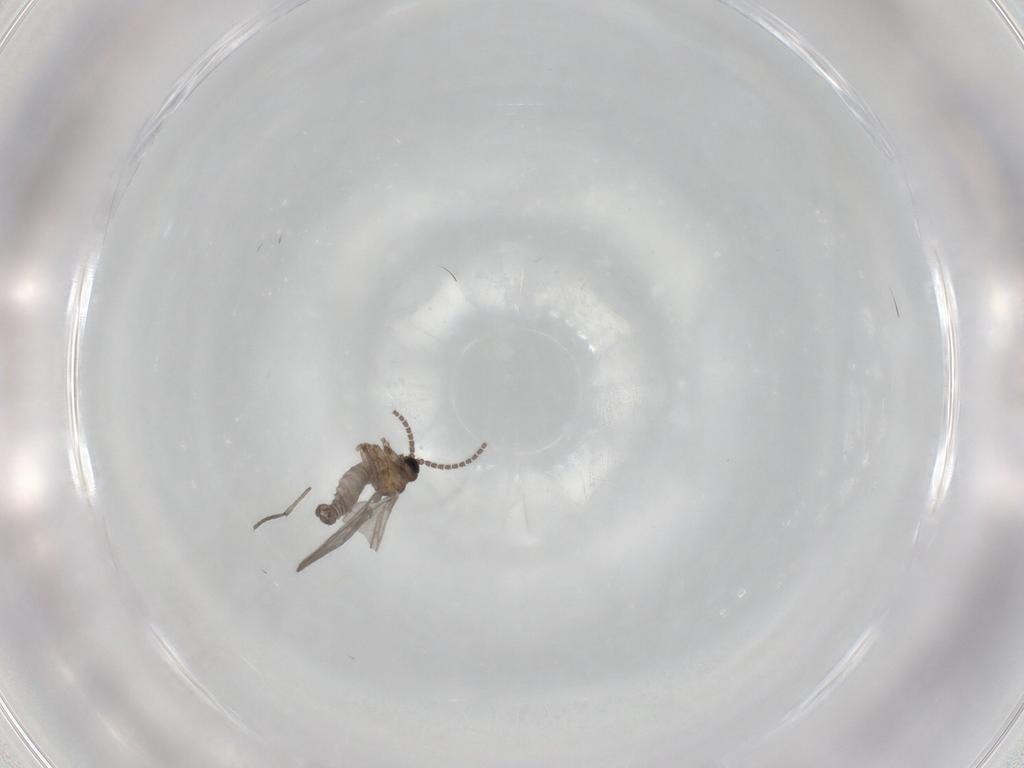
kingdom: Animalia
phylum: Arthropoda
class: Insecta
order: Diptera
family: Sciaridae
